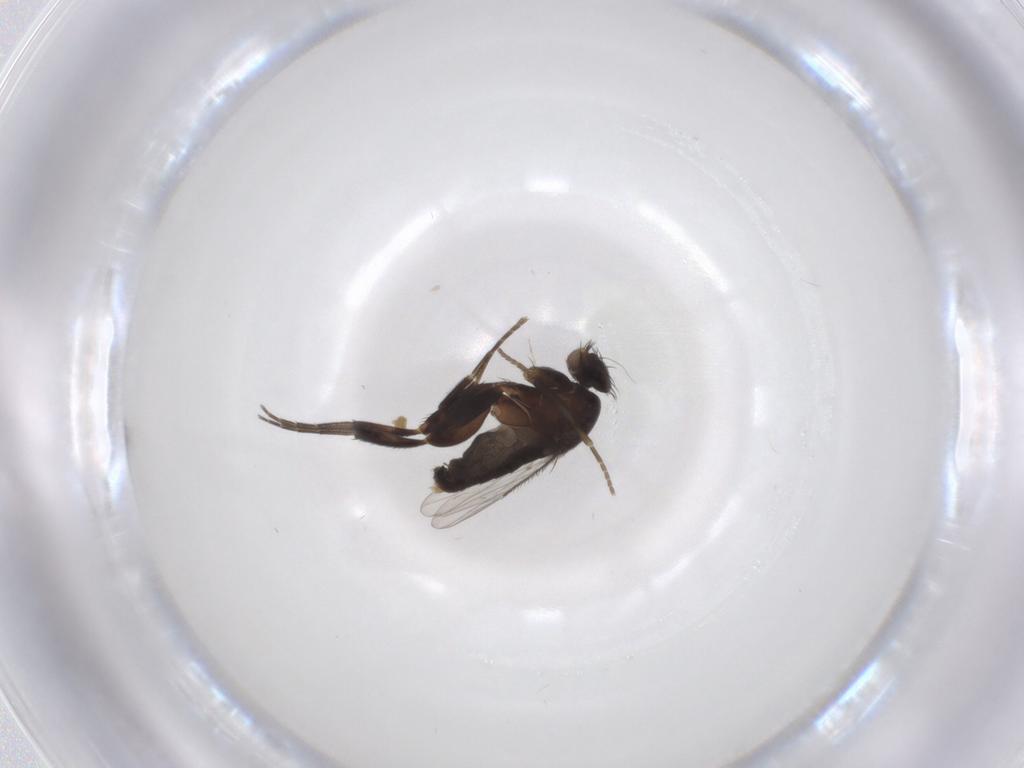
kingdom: Animalia
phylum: Arthropoda
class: Insecta
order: Diptera
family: Phoridae
